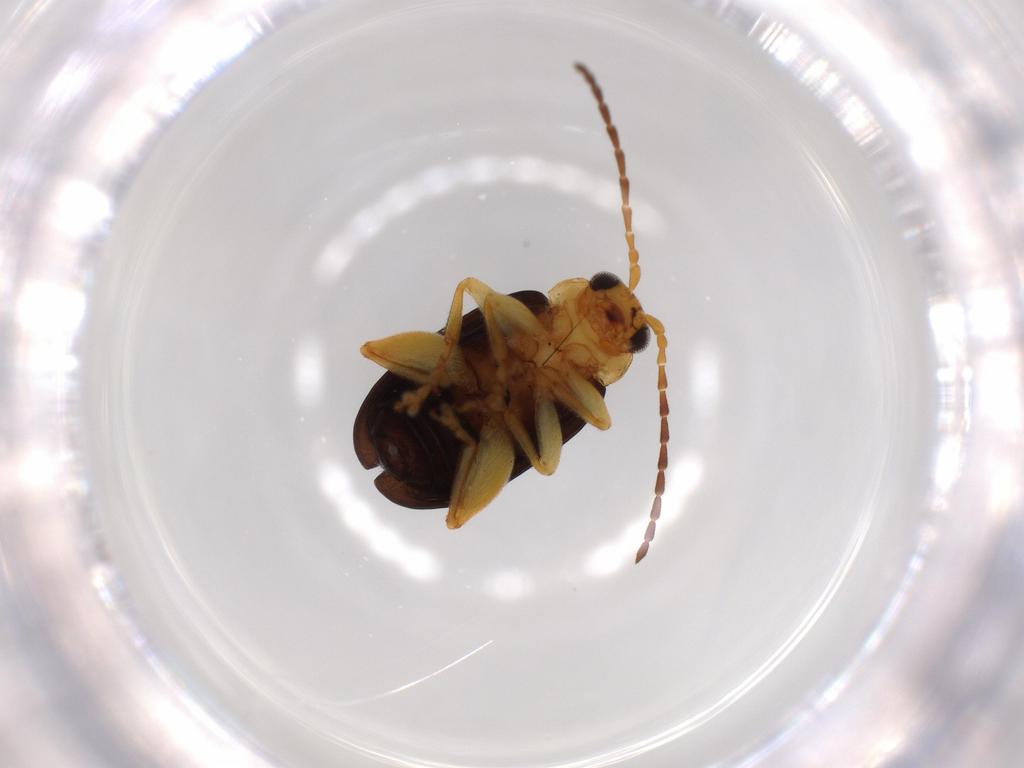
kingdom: Animalia
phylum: Arthropoda
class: Insecta
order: Coleoptera
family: Chrysomelidae
